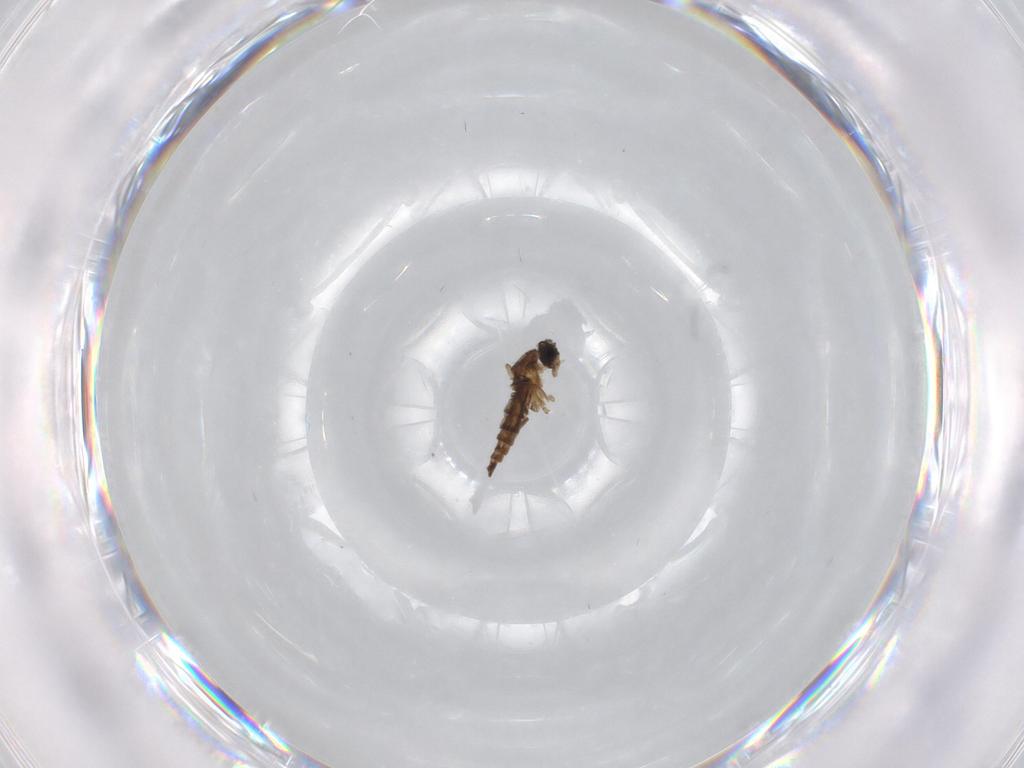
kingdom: Animalia
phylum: Arthropoda
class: Insecta
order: Diptera
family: Sciaridae
